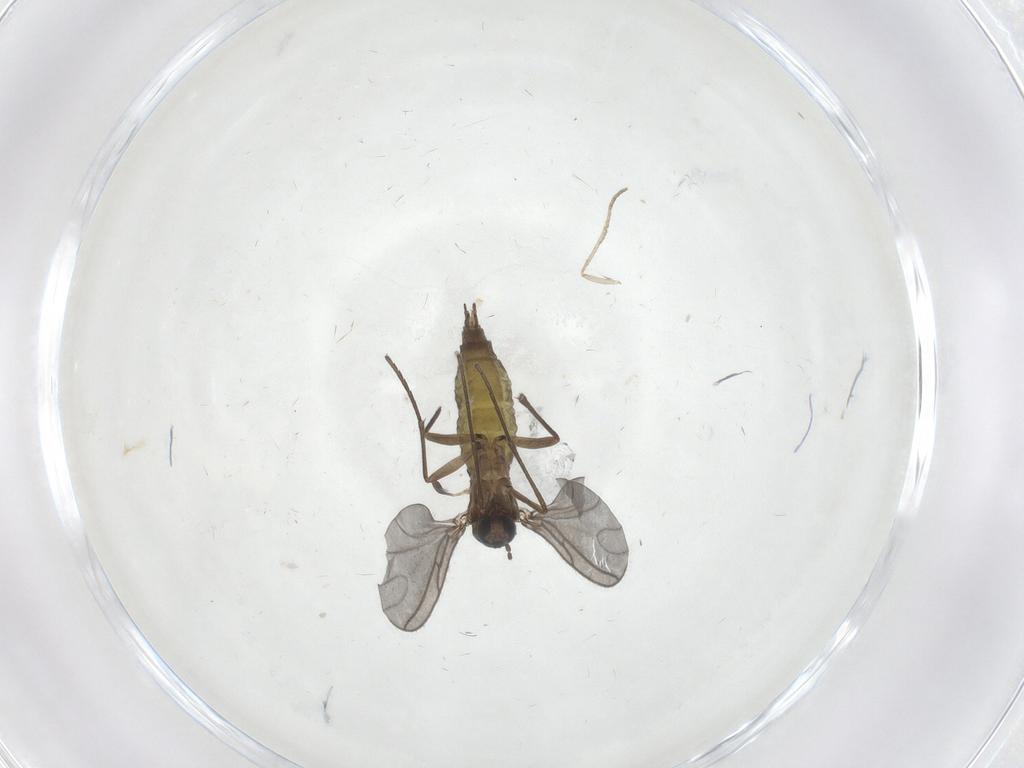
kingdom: Animalia
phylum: Arthropoda
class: Insecta
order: Diptera
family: Sciaridae
